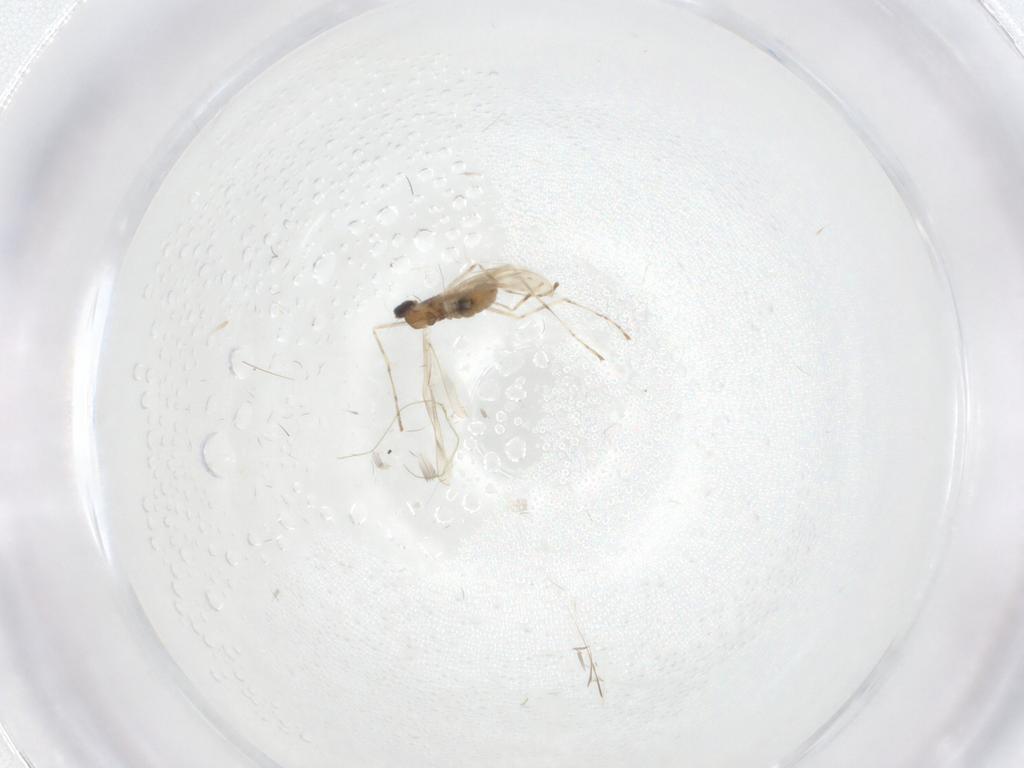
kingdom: Animalia
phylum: Arthropoda
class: Insecta
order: Diptera
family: Cecidomyiidae
